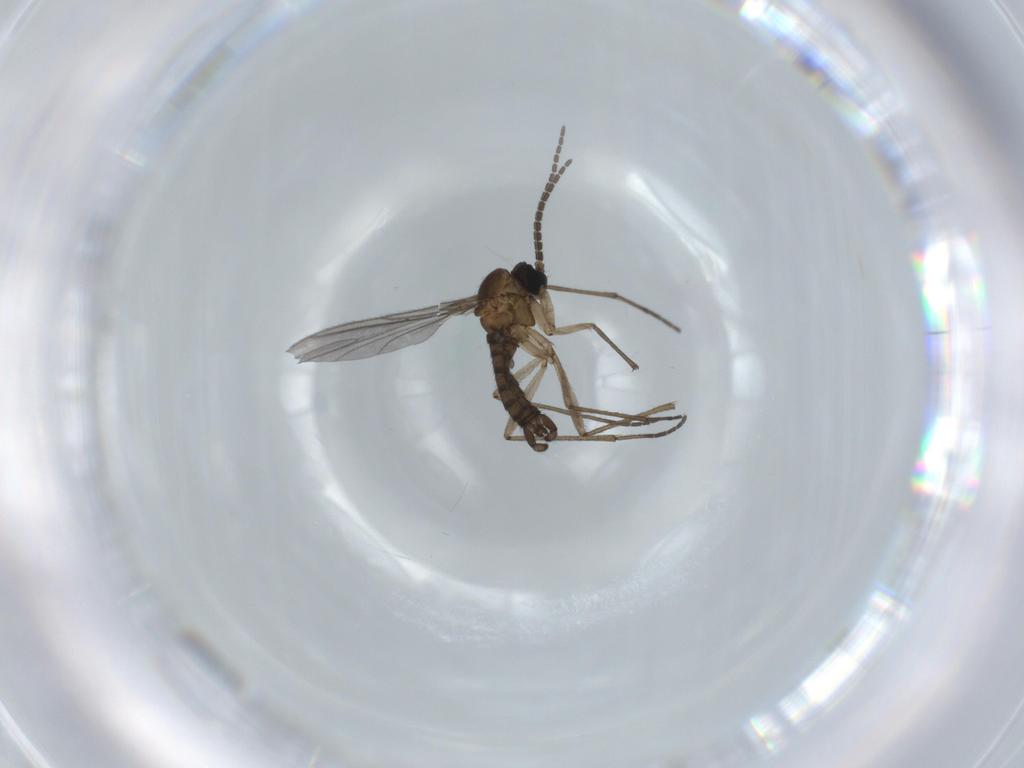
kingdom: Animalia
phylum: Arthropoda
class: Insecta
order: Diptera
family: Sciaridae
